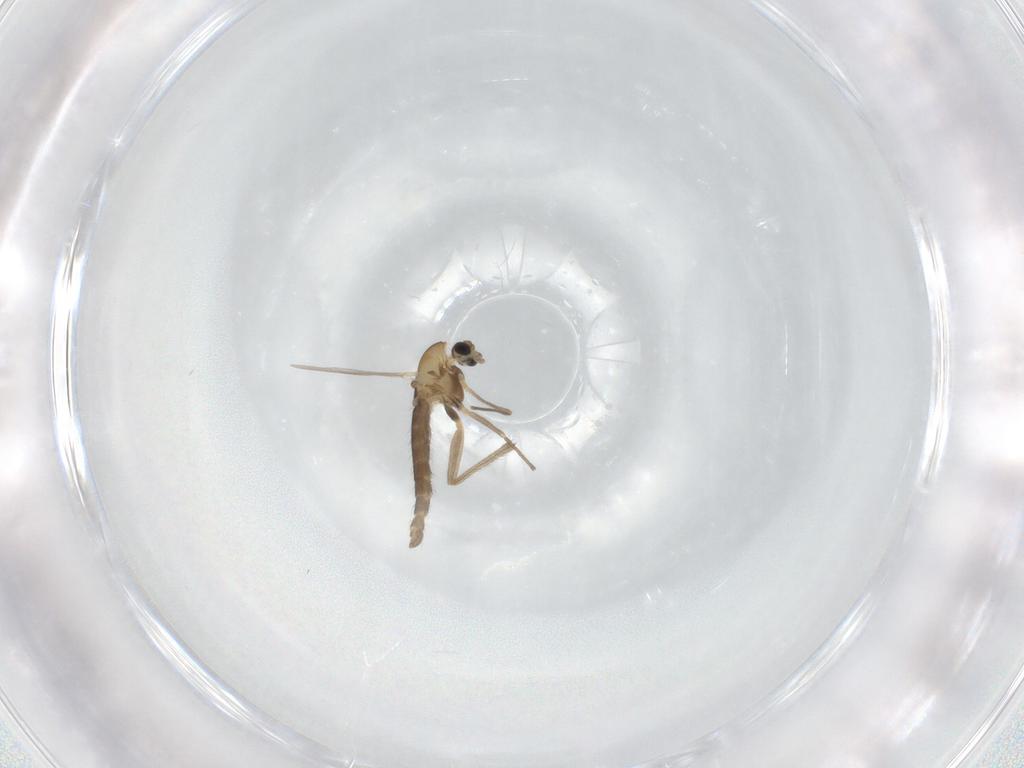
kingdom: Animalia
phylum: Arthropoda
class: Insecta
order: Diptera
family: Chironomidae
